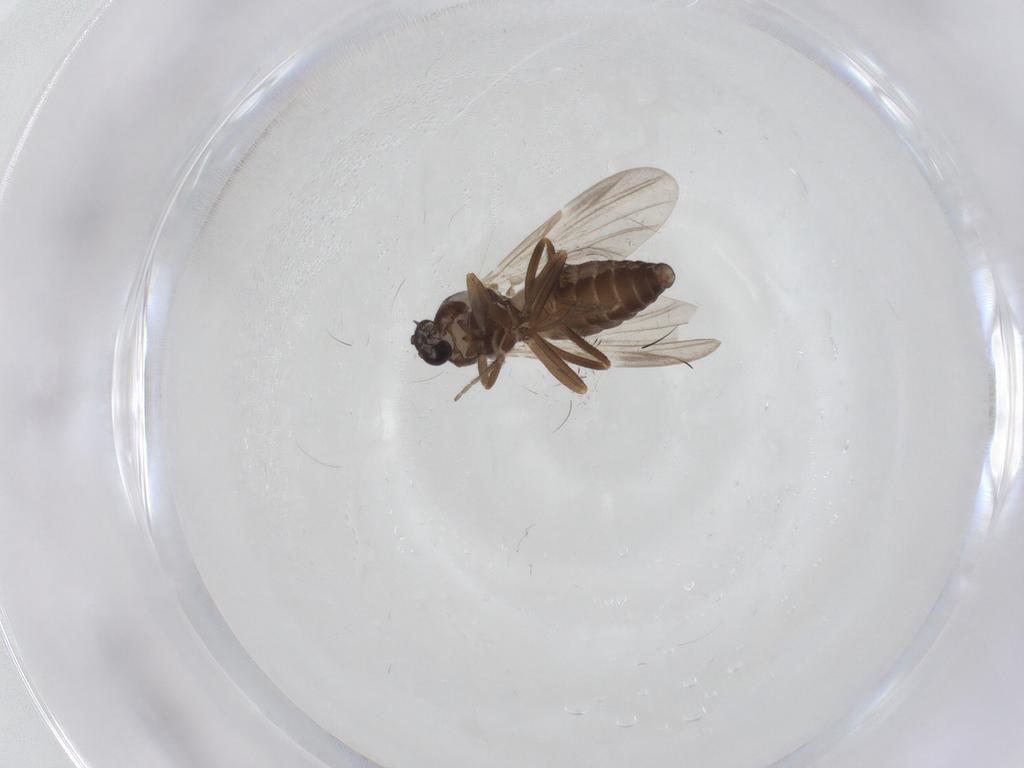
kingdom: Animalia
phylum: Arthropoda
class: Insecta
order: Diptera
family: Ceratopogonidae
